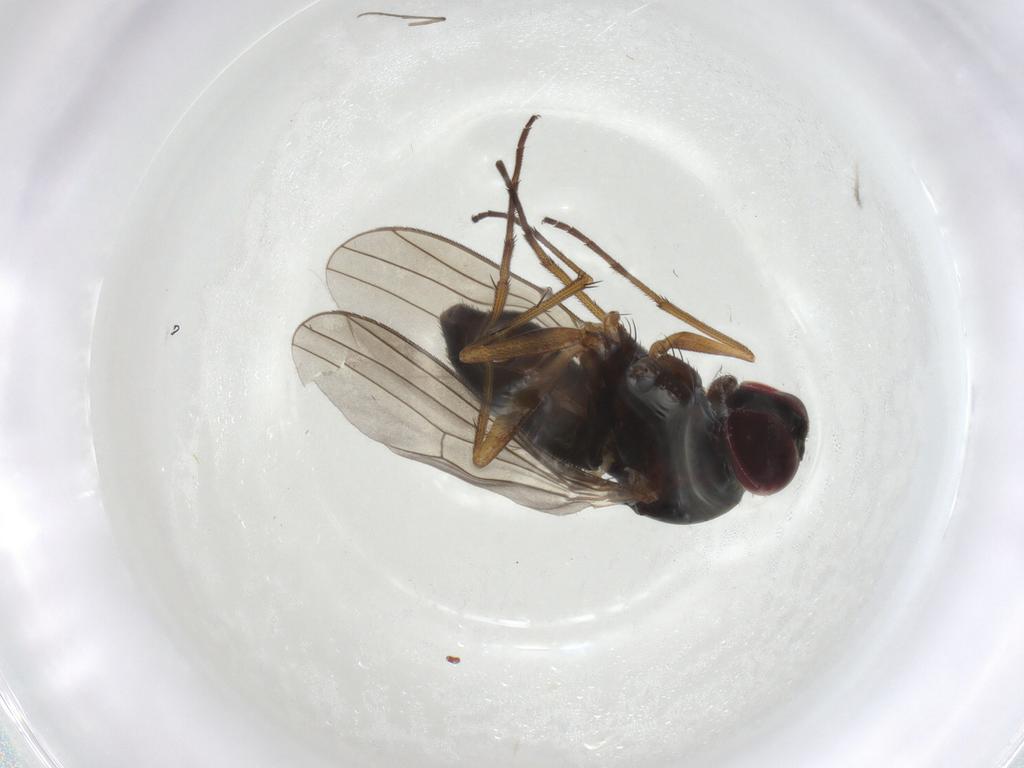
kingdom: Animalia
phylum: Arthropoda
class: Insecta
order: Diptera
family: Dolichopodidae
